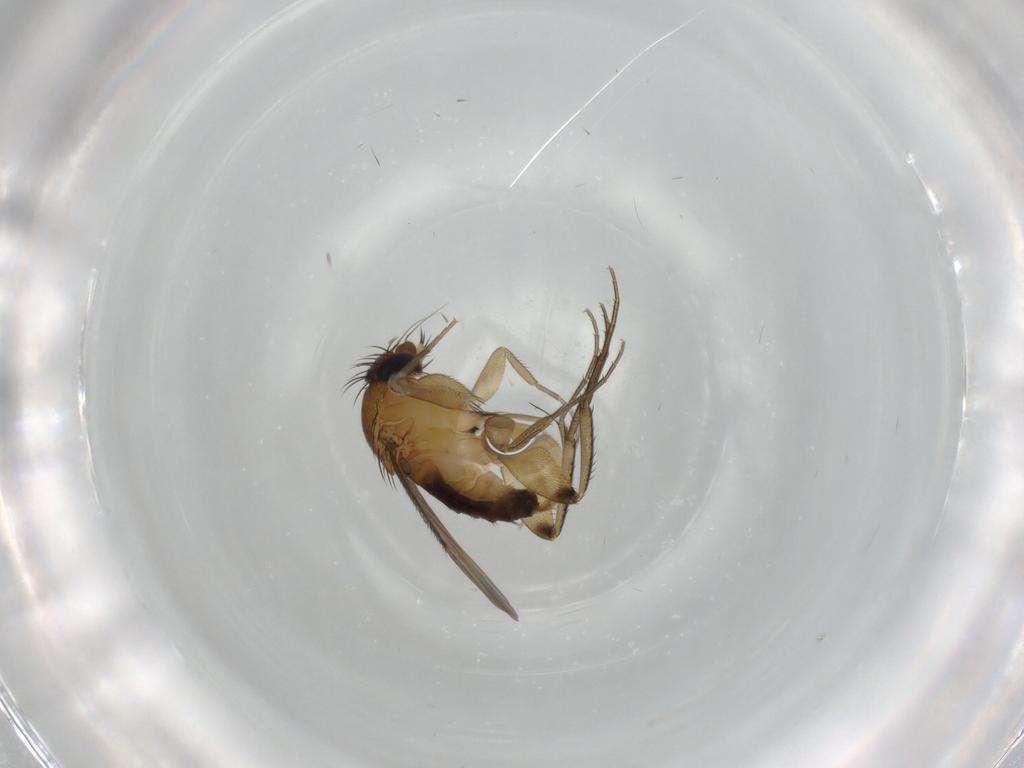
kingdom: Animalia
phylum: Arthropoda
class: Insecta
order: Diptera
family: Phoridae
